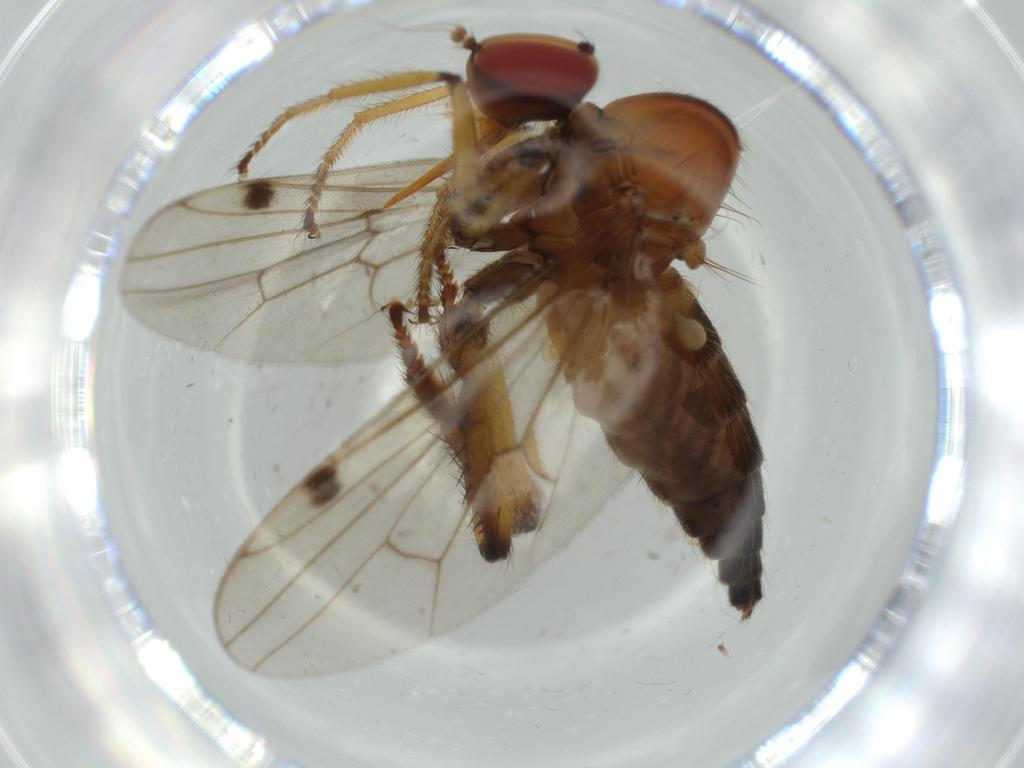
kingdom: Animalia
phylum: Arthropoda
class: Insecta
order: Diptera
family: Hybotidae
